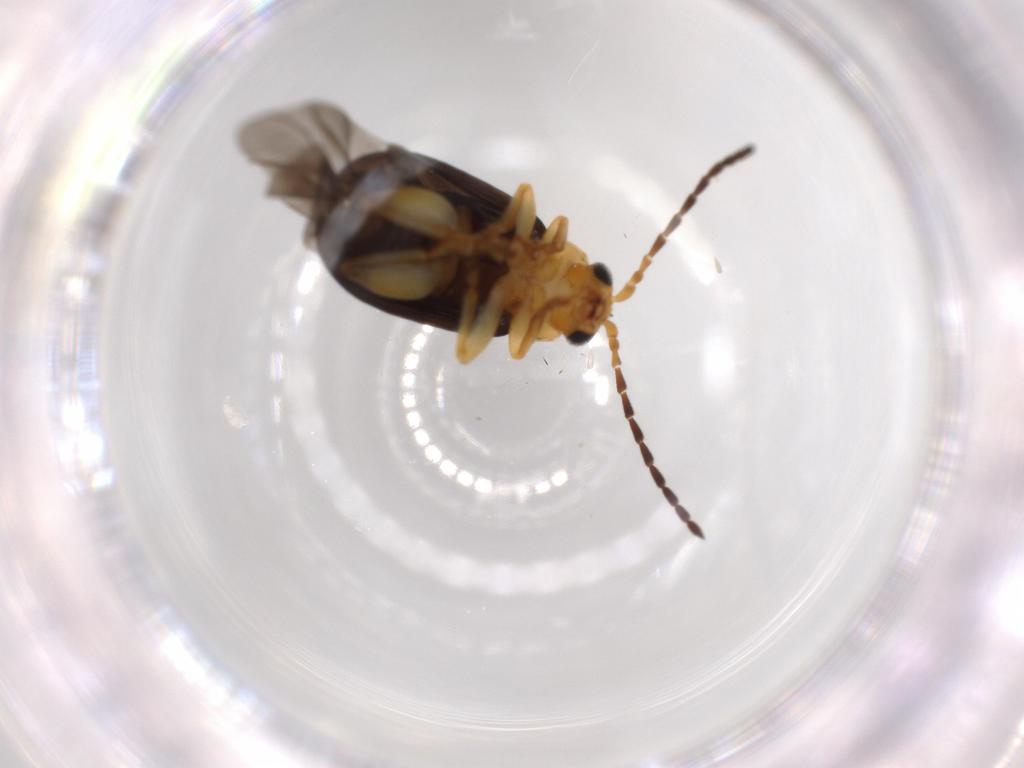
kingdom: Animalia
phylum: Arthropoda
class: Insecta
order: Coleoptera
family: Chrysomelidae
